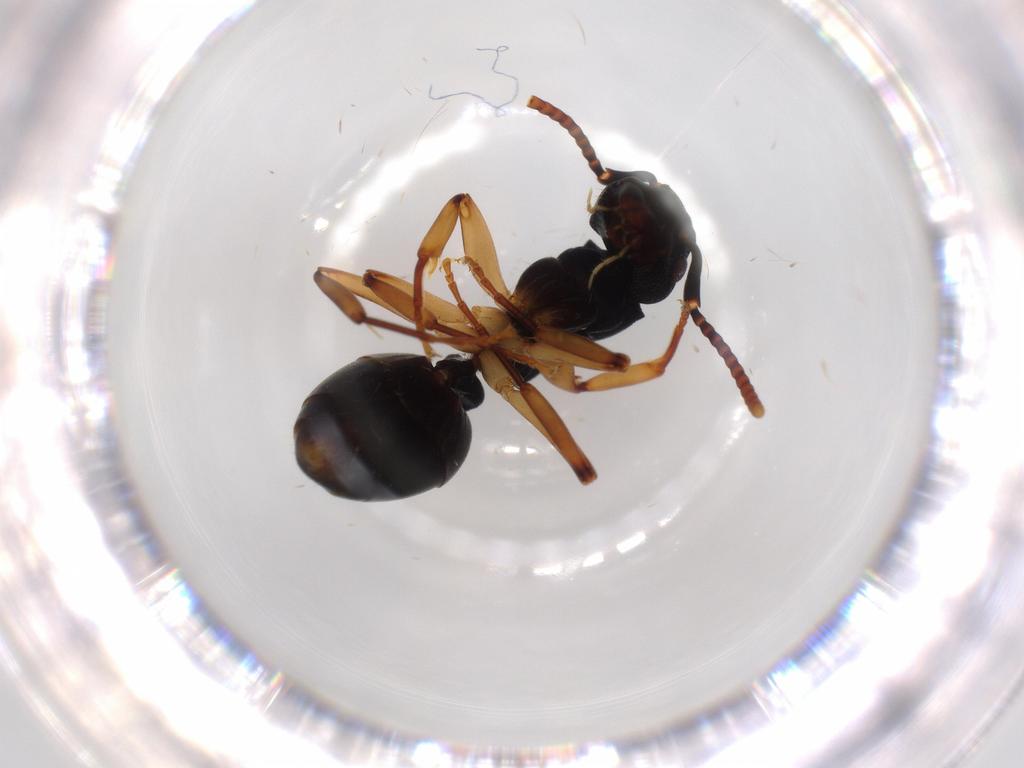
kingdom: Animalia
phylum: Arthropoda
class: Insecta
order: Hymenoptera
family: Formicidae
